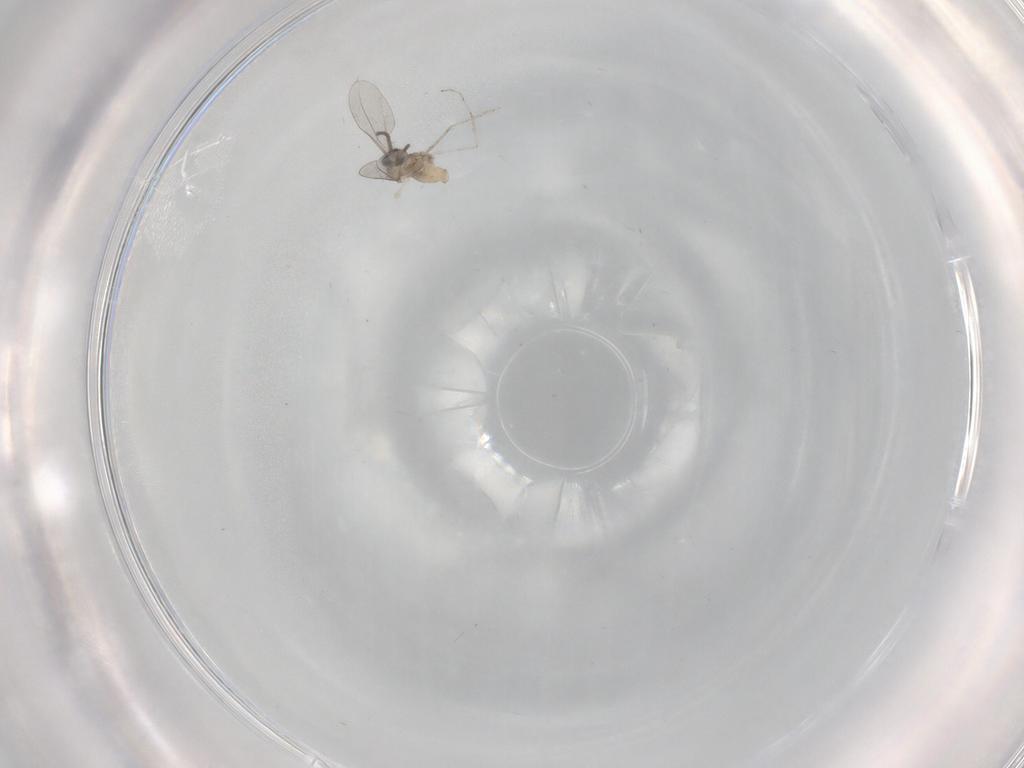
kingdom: Animalia
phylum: Arthropoda
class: Insecta
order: Diptera
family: Cecidomyiidae
